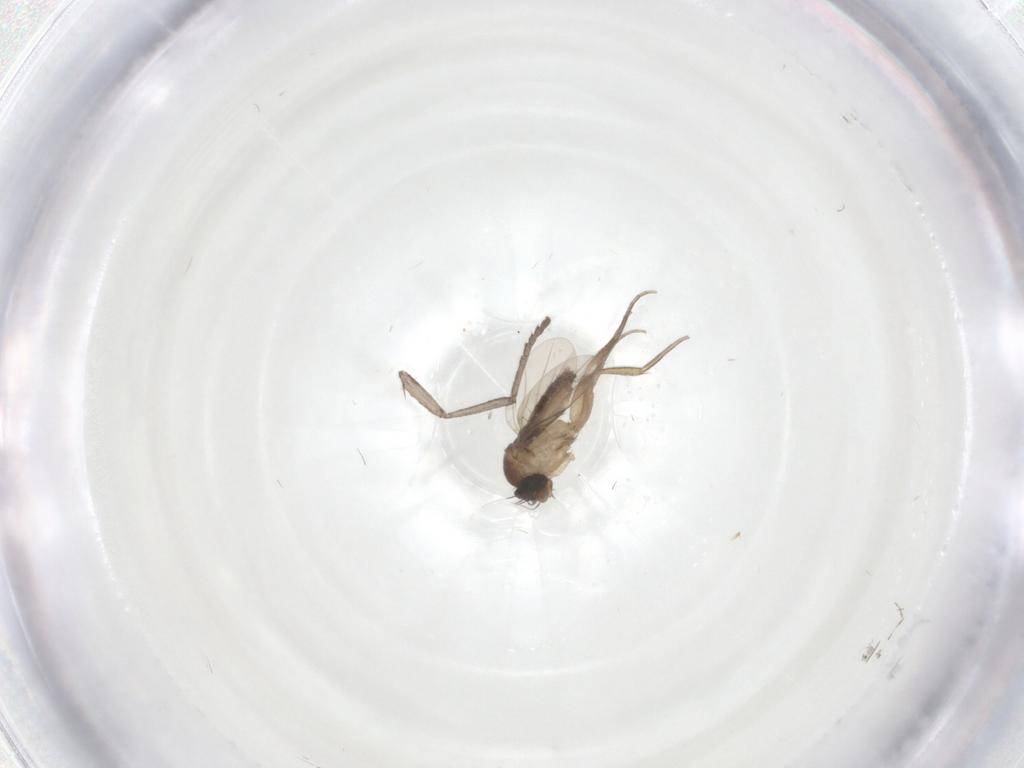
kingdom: Animalia
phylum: Arthropoda
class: Insecta
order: Diptera
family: Phoridae
